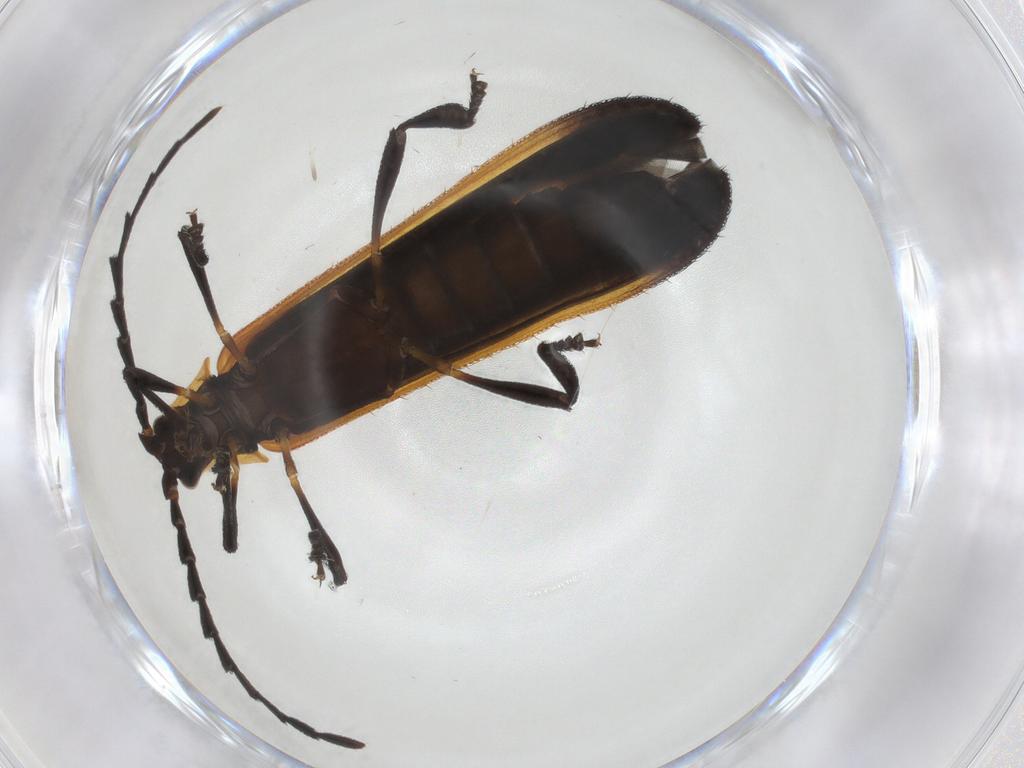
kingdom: Animalia
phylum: Arthropoda
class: Insecta
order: Coleoptera
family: Lycidae
